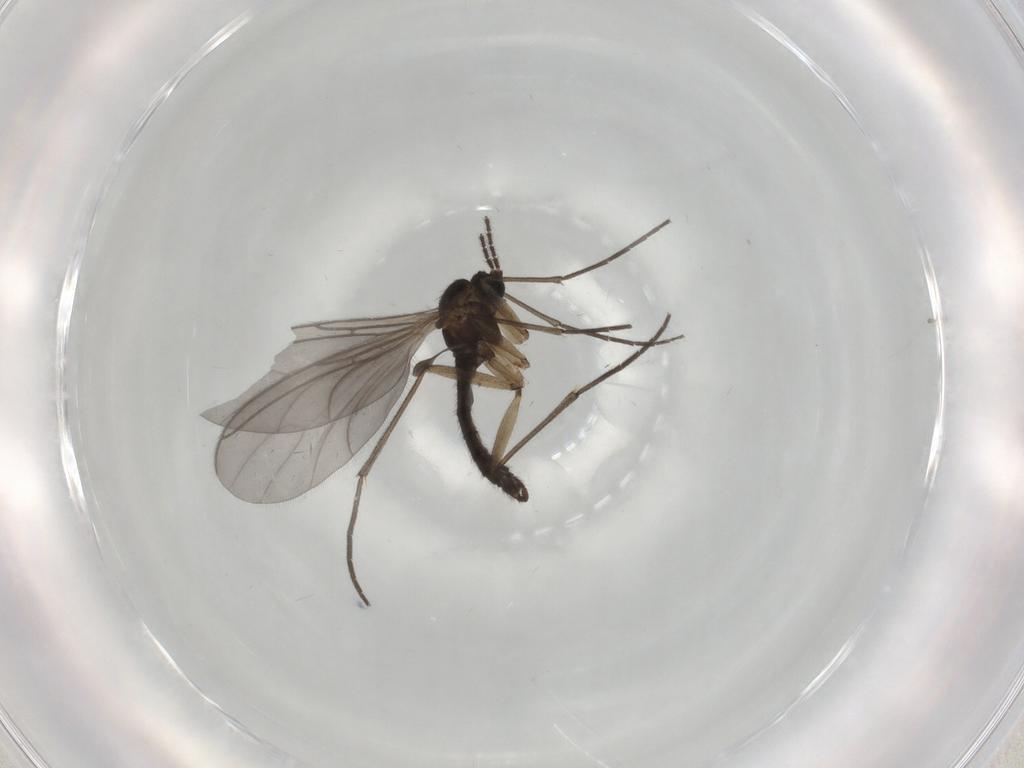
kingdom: Animalia
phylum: Arthropoda
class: Insecta
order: Diptera
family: Sciaridae
